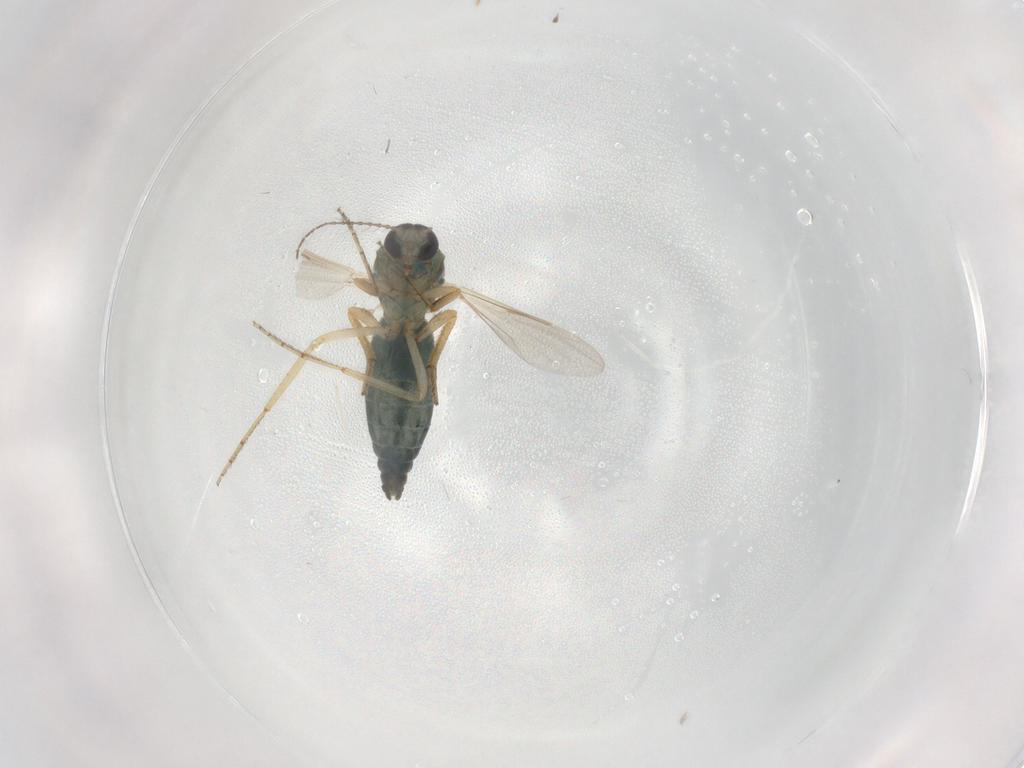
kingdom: Animalia
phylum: Arthropoda
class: Insecta
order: Diptera
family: Ceratopogonidae
